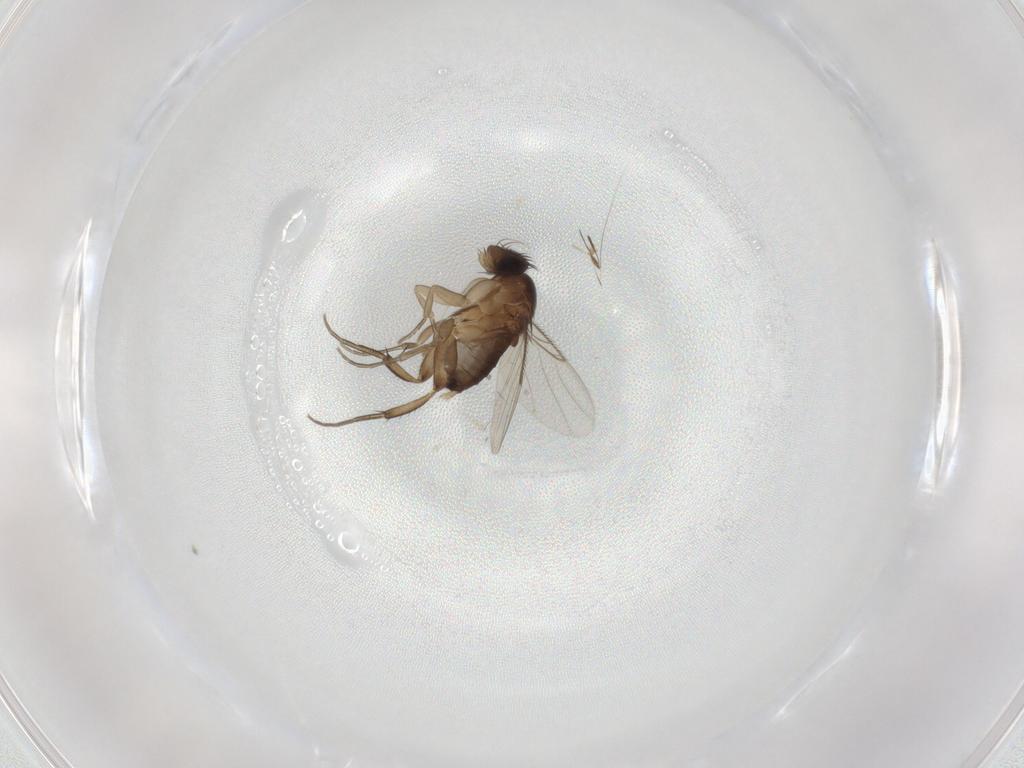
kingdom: Animalia
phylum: Arthropoda
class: Insecta
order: Diptera
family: Phoridae
